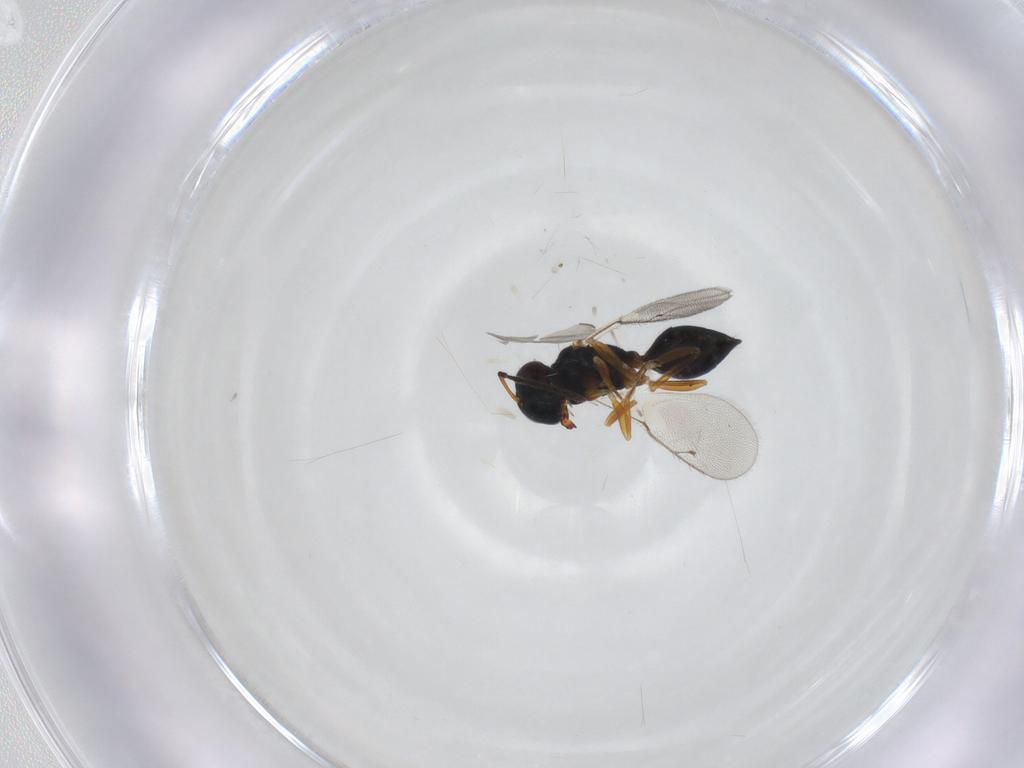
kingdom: Animalia
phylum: Arthropoda
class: Insecta
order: Hymenoptera
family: Pteromalidae
